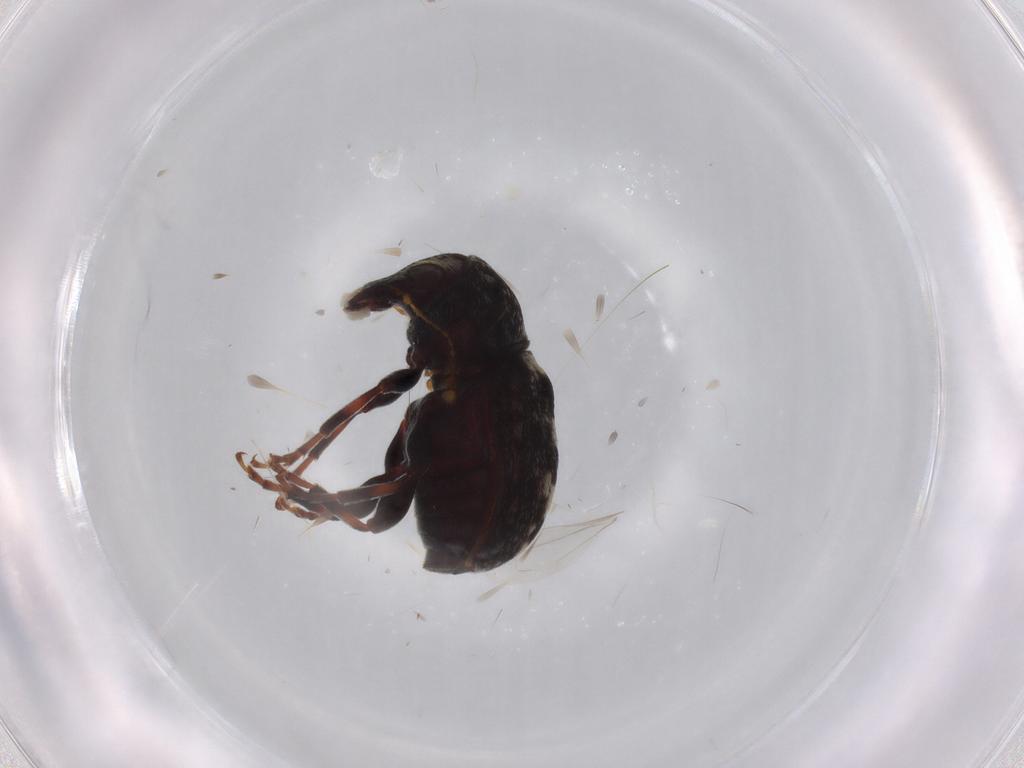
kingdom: Animalia
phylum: Arthropoda
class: Insecta
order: Coleoptera
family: Anthribidae
